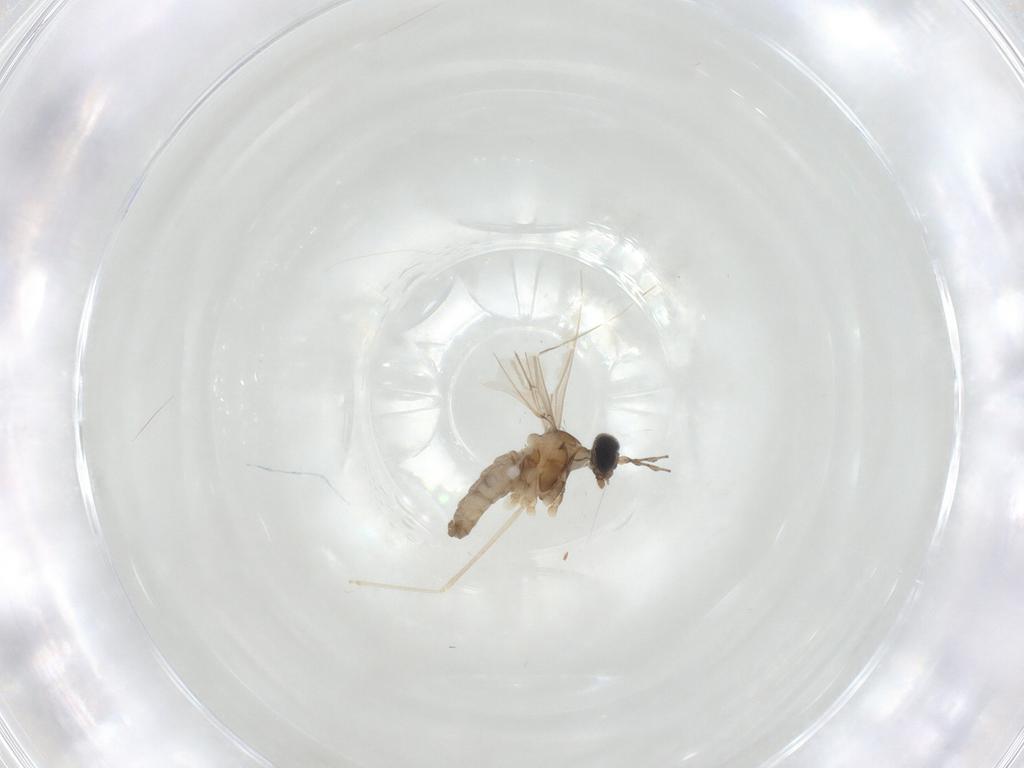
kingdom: Animalia
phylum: Arthropoda
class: Insecta
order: Diptera
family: Cecidomyiidae
